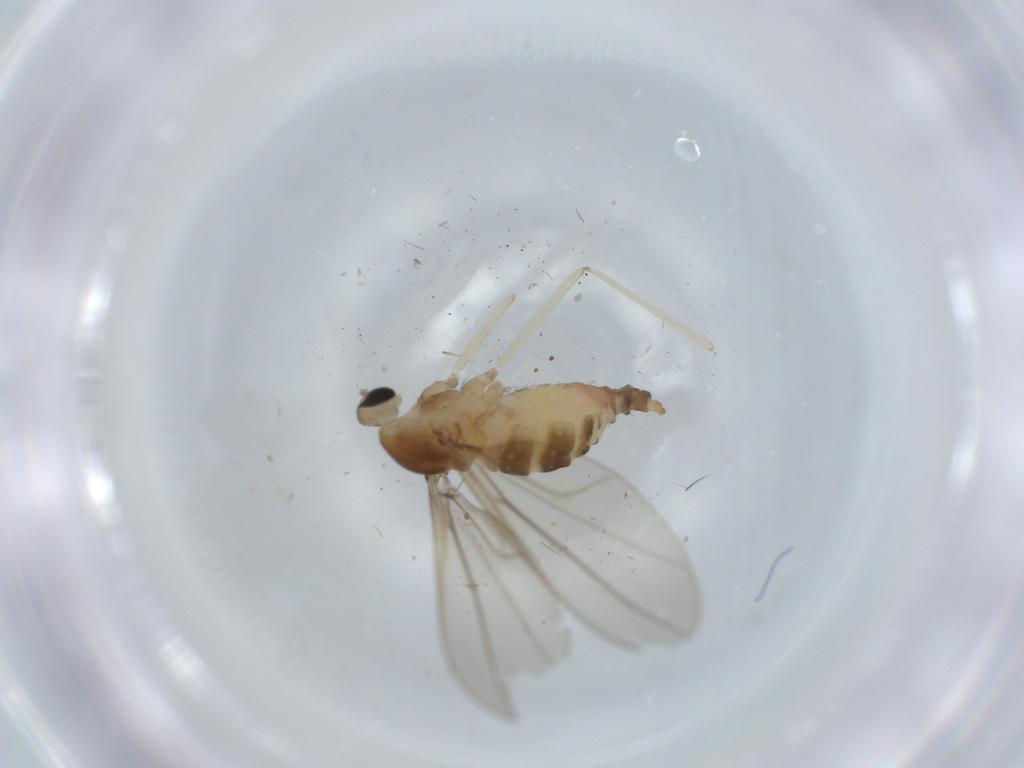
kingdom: Animalia
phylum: Arthropoda
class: Insecta
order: Diptera
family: Cecidomyiidae
